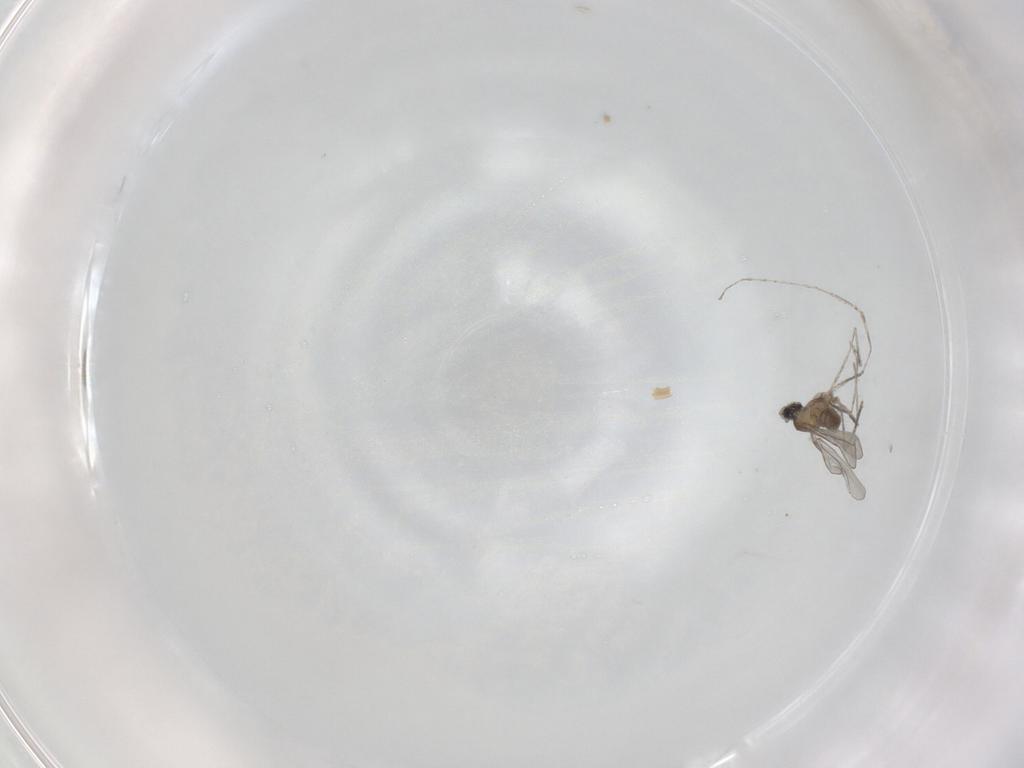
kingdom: Animalia
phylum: Arthropoda
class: Insecta
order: Diptera
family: Cecidomyiidae
